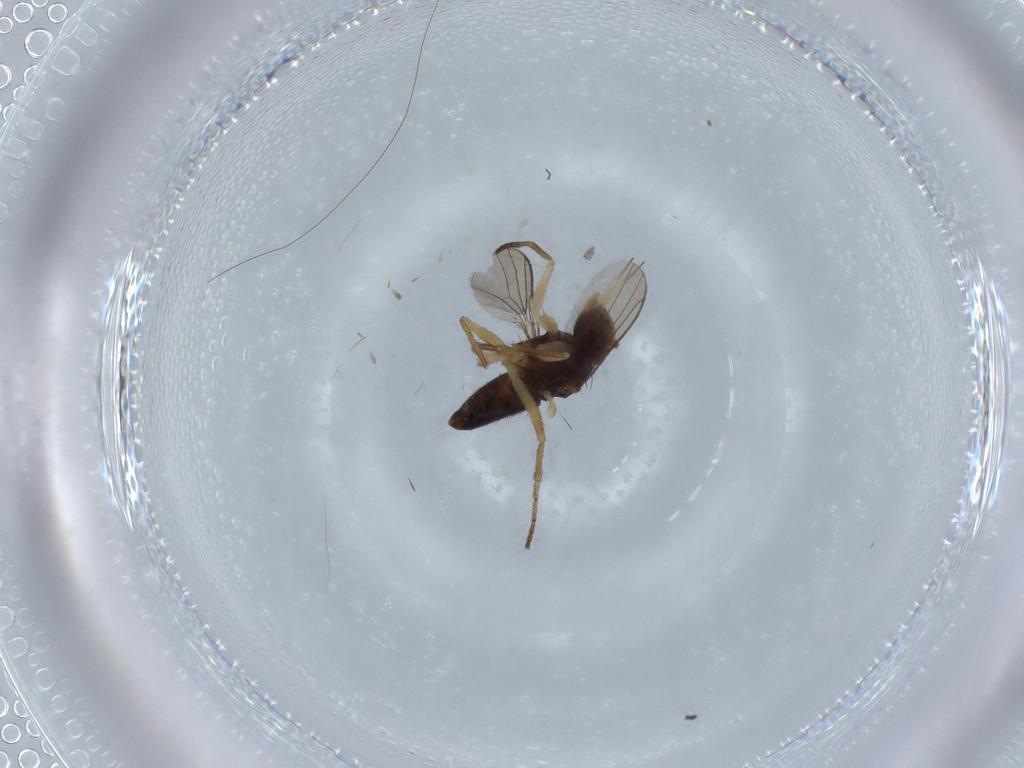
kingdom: Animalia
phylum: Arthropoda
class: Insecta
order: Diptera
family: Dolichopodidae
